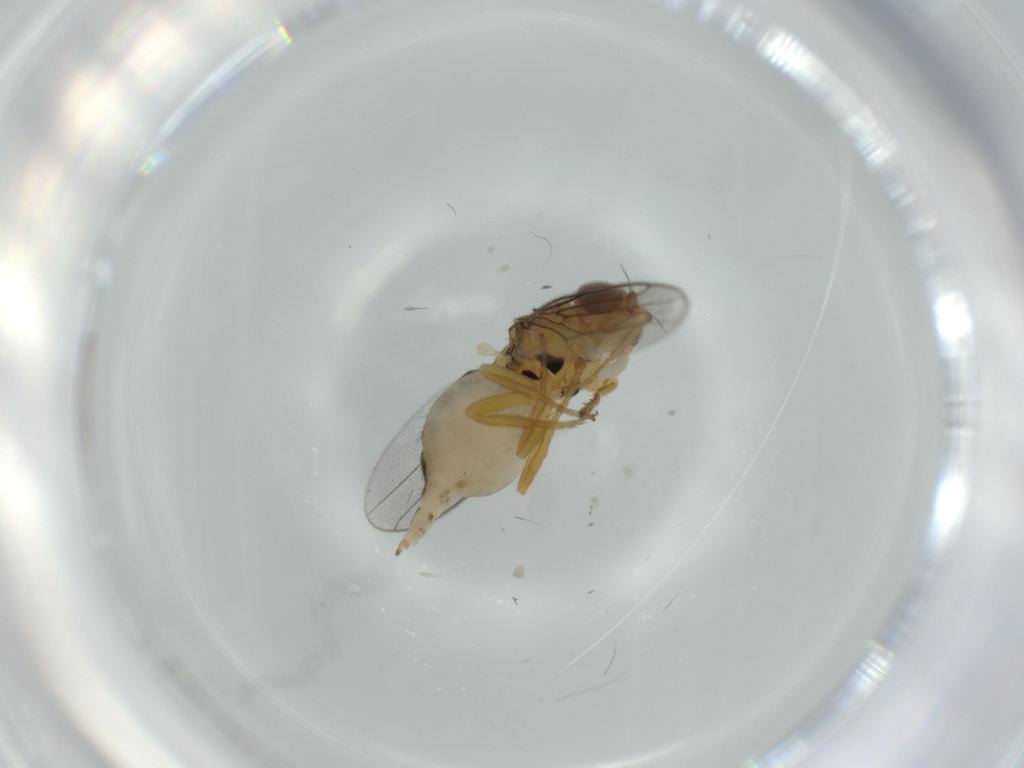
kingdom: Animalia
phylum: Arthropoda
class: Insecta
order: Diptera
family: Chloropidae
